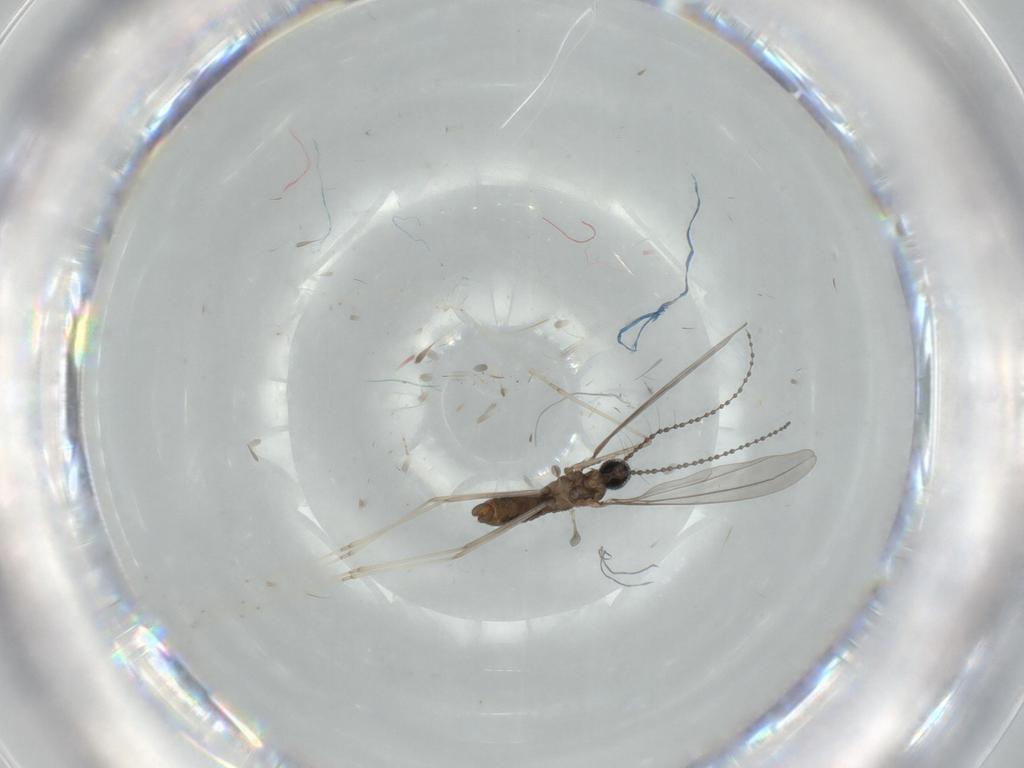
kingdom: Animalia
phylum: Arthropoda
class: Insecta
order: Diptera
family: Cecidomyiidae
